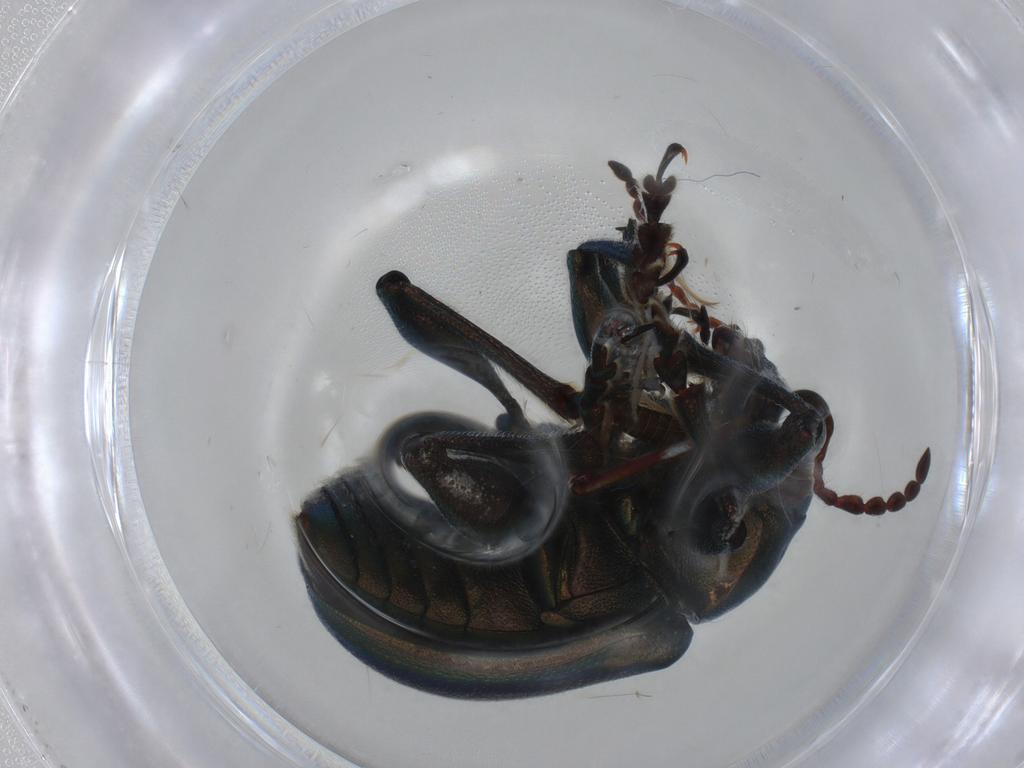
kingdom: Animalia
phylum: Arthropoda
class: Insecta
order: Coleoptera
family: Chrysomelidae
